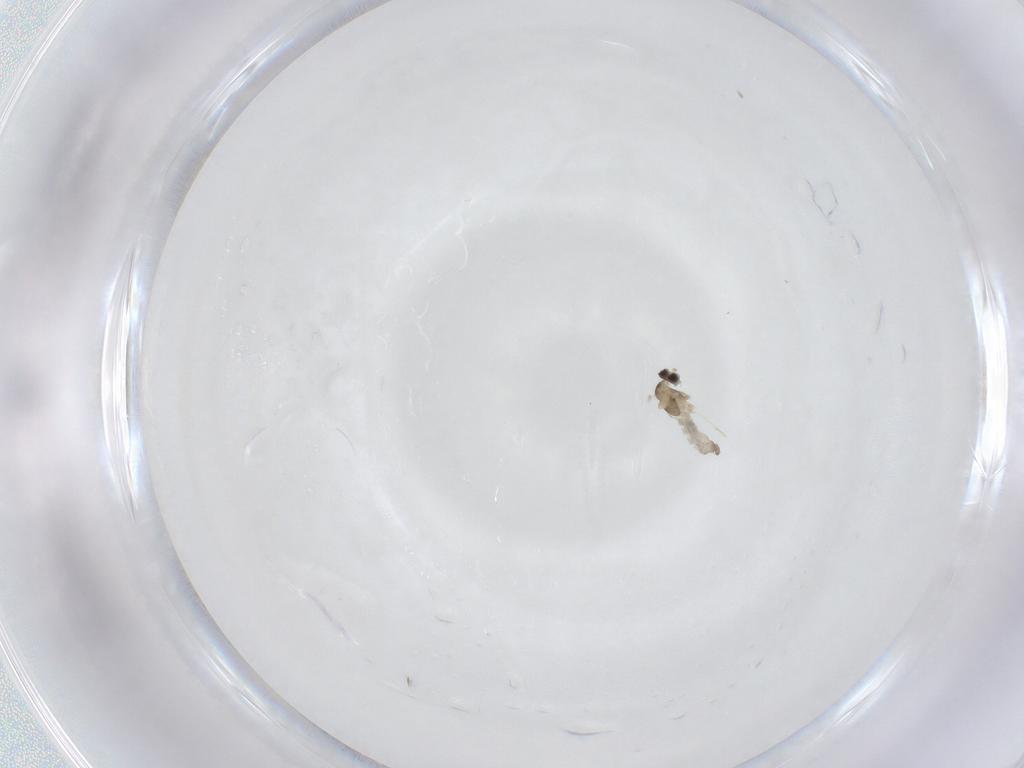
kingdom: Animalia
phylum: Arthropoda
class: Insecta
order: Diptera
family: Cecidomyiidae
